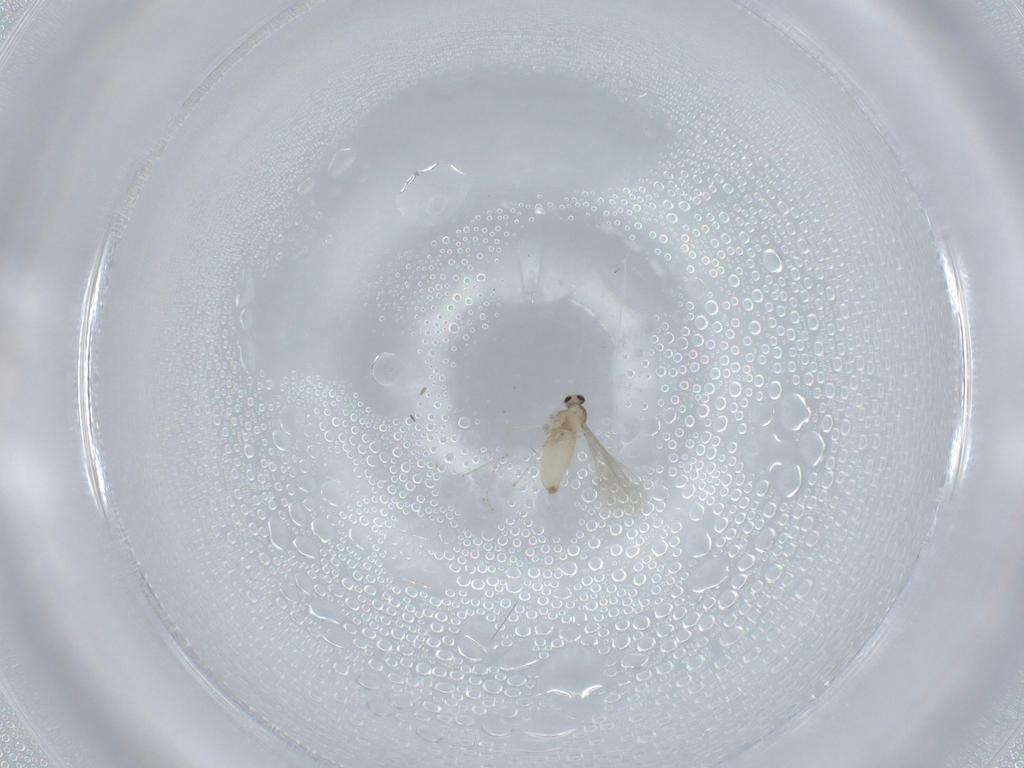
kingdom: Animalia
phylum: Arthropoda
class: Insecta
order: Diptera
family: Cecidomyiidae
